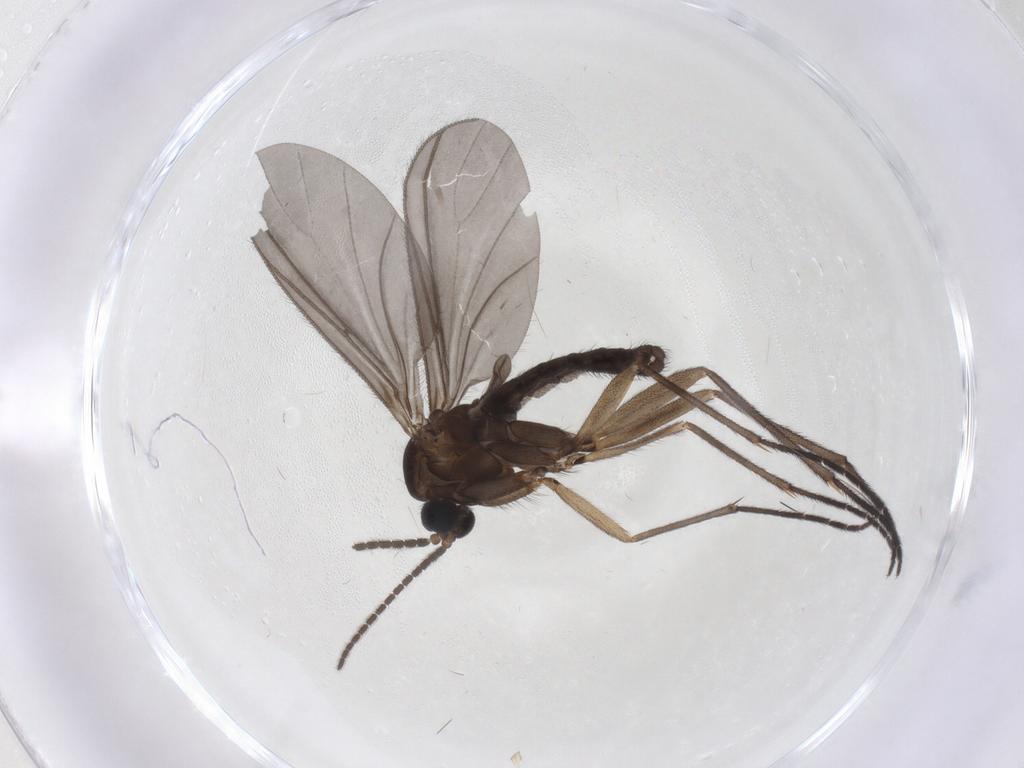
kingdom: Animalia
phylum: Arthropoda
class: Insecta
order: Diptera
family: Sciaridae
